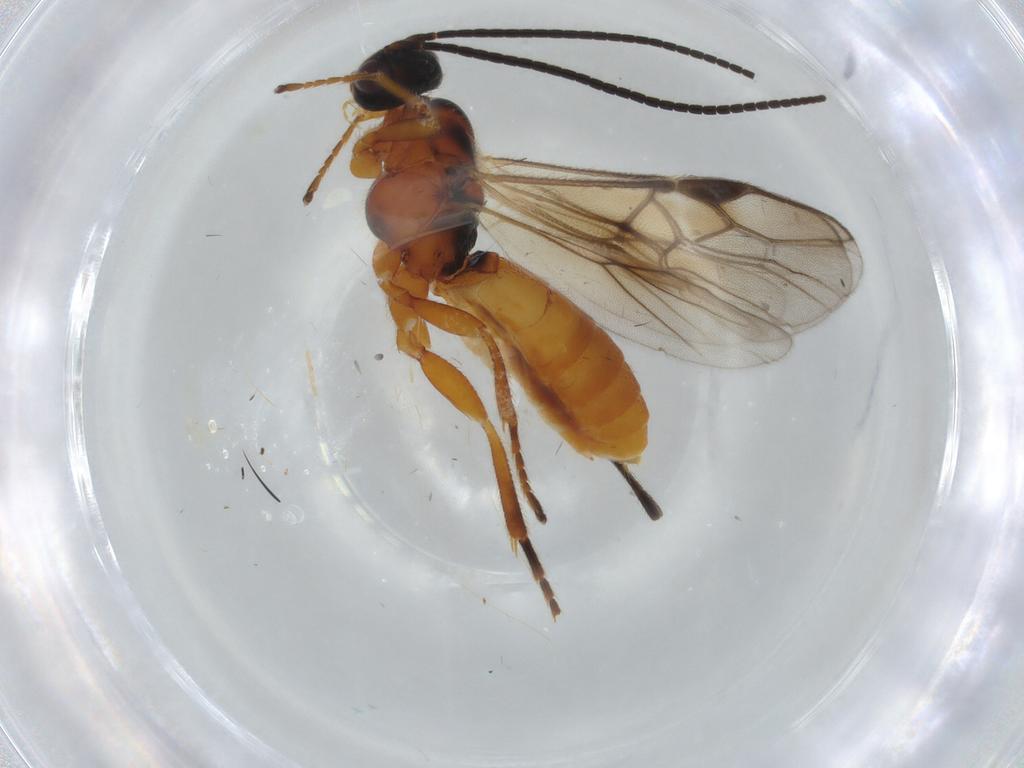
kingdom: Animalia
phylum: Arthropoda
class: Insecta
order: Hymenoptera
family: Braconidae
